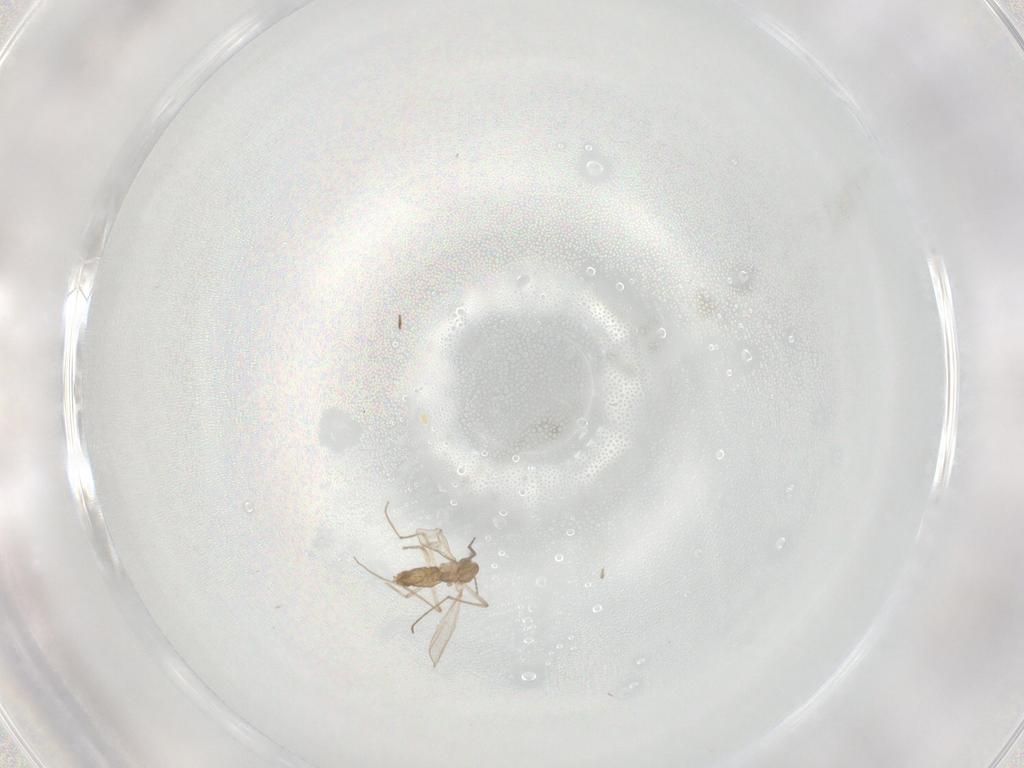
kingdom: Animalia
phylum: Arthropoda
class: Insecta
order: Diptera
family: Chironomidae
